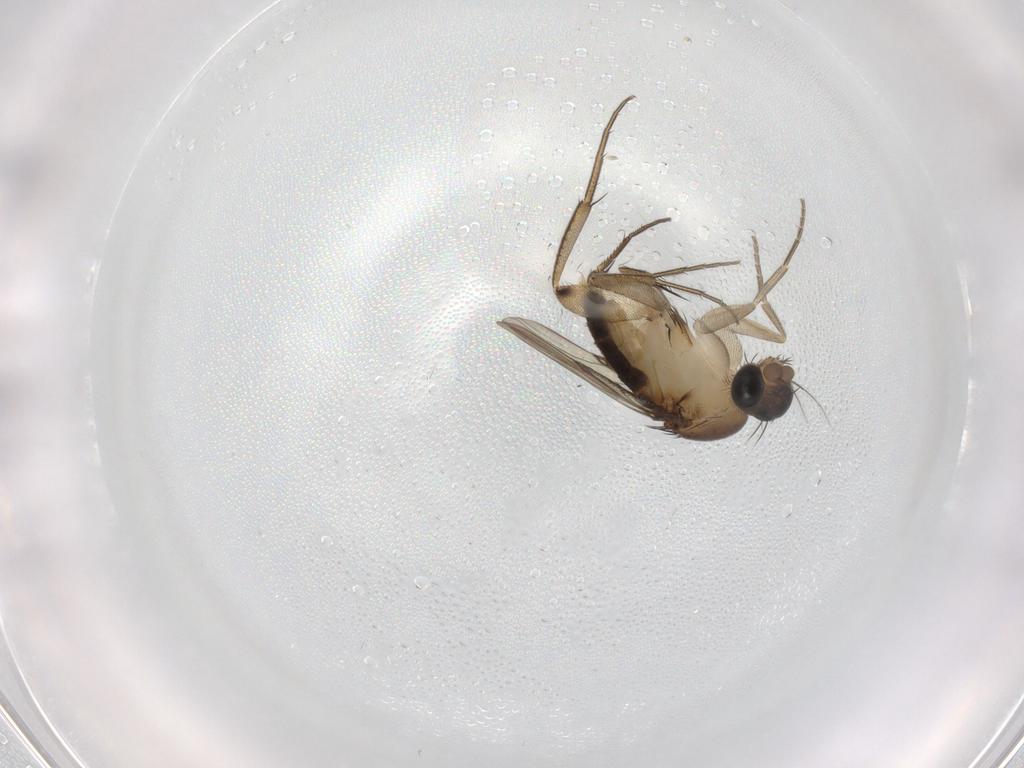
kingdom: Animalia
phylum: Arthropoda
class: Insecta
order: Diptera
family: Phoridae
